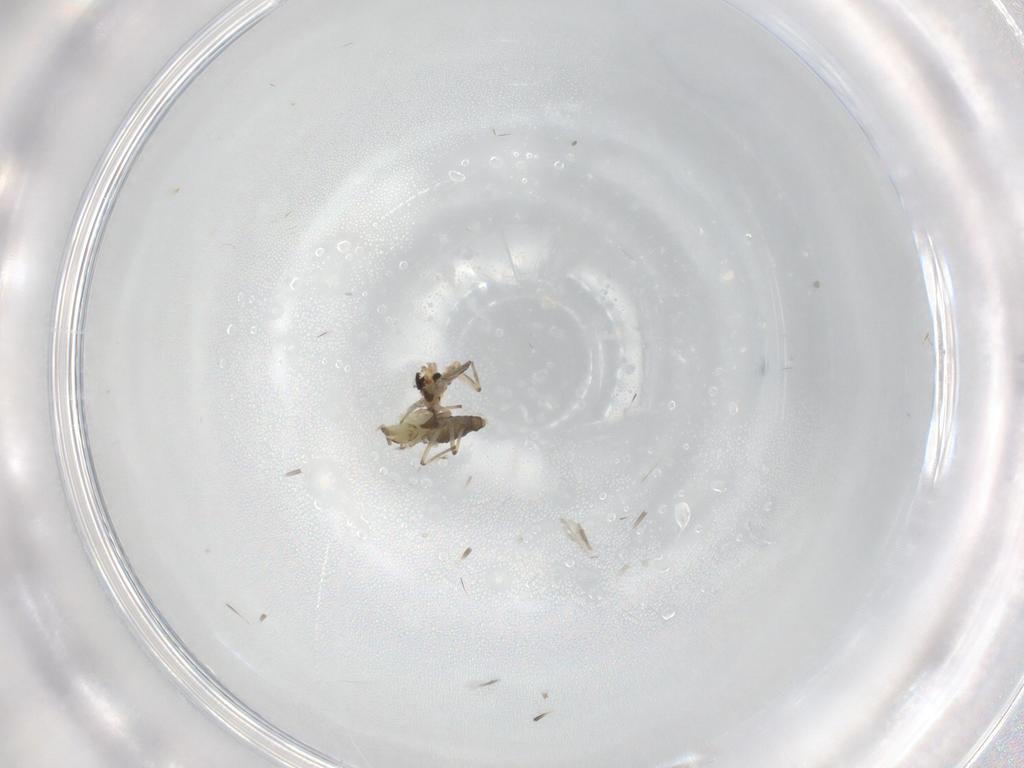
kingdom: Animalia
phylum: Arthropoda
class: Insecta
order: Diptera
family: Chironomidae
